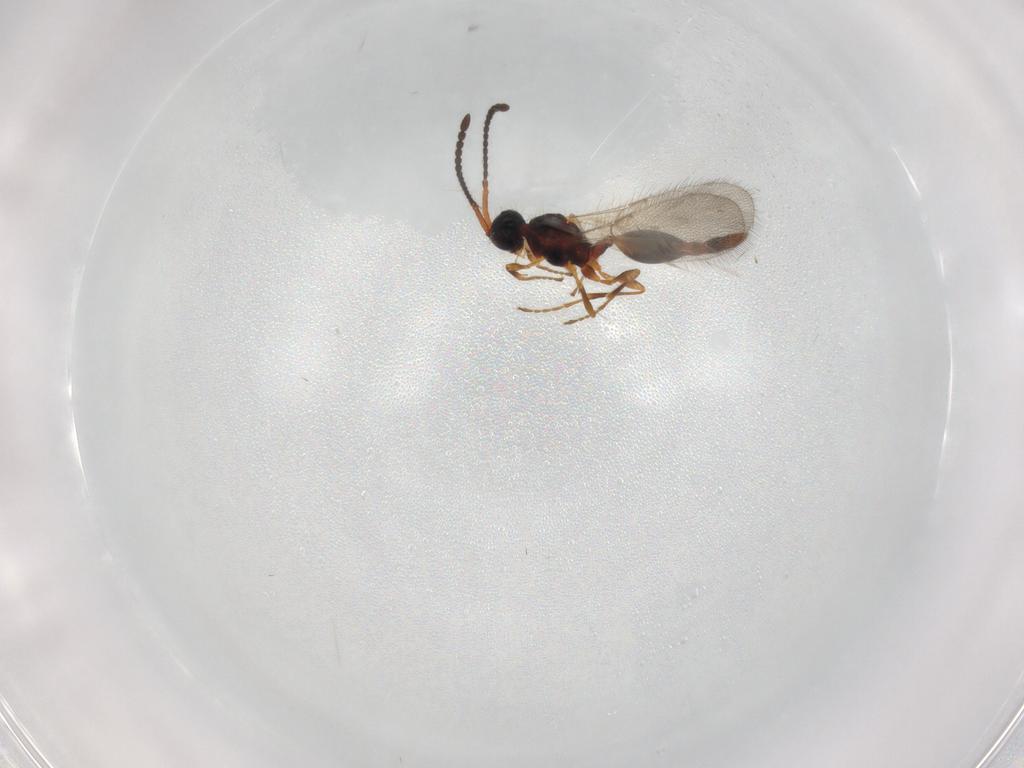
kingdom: Animalia
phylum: Arthropoda
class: Insecta
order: Hymenoptera
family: Diapriidae
